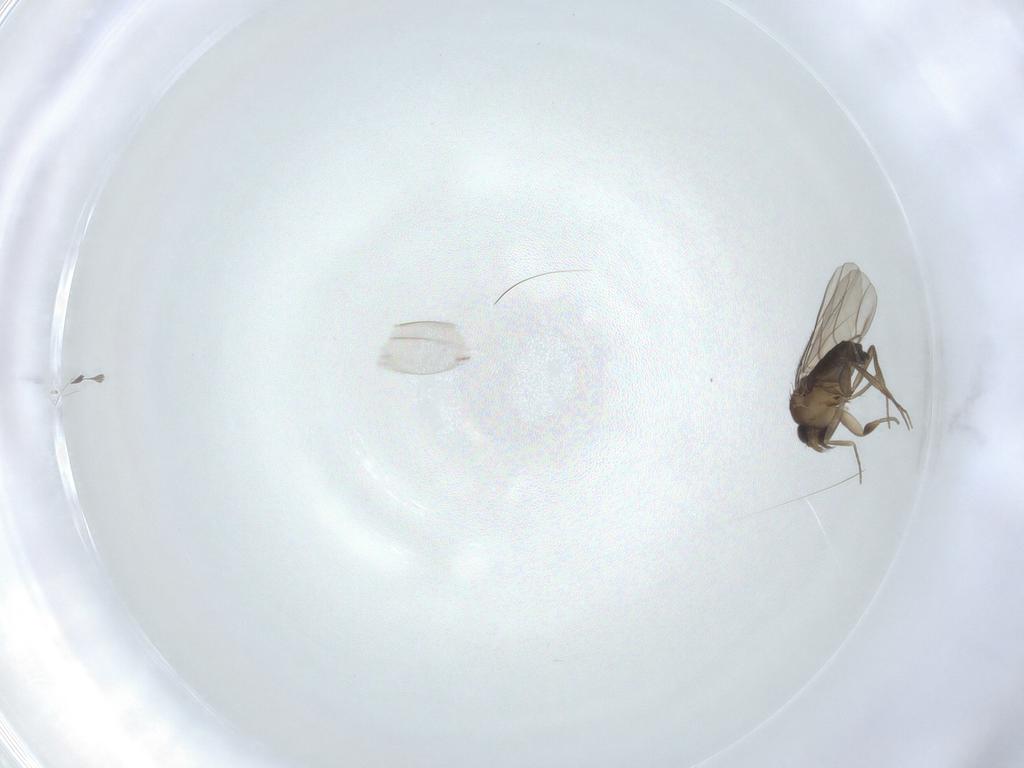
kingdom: Animalia
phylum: Arthropoda
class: Insecta
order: Diptera
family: Phoridae
